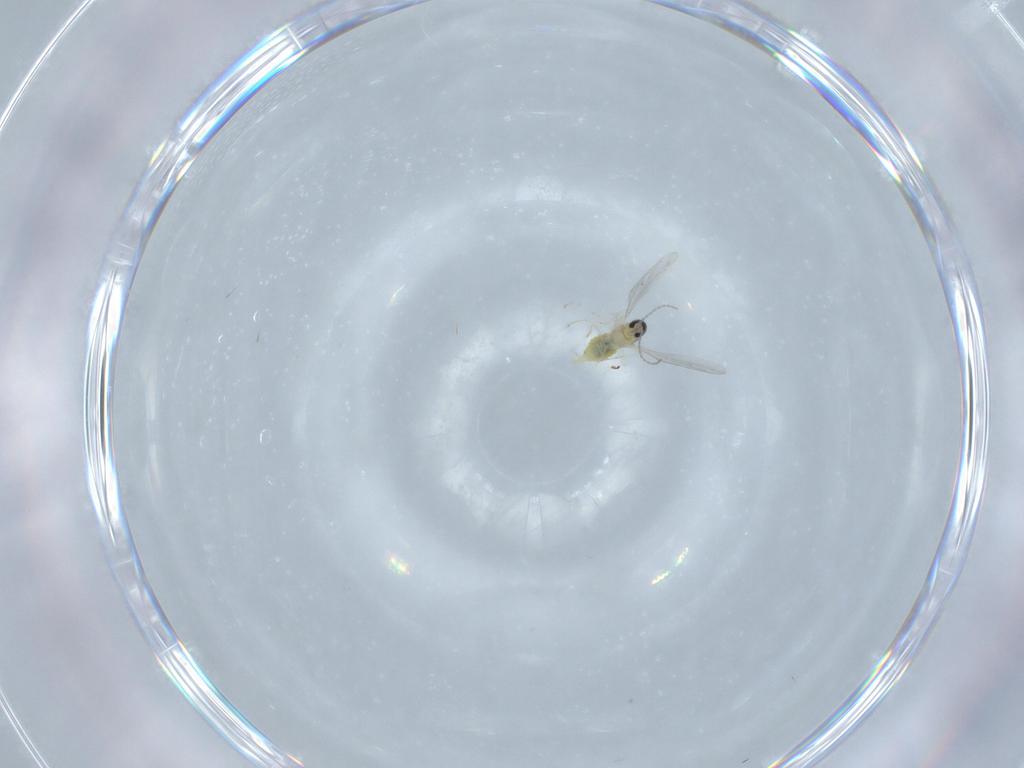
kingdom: Animalia
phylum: Arthropoda
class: Insecta
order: Diptera
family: Cecidomyiidae
